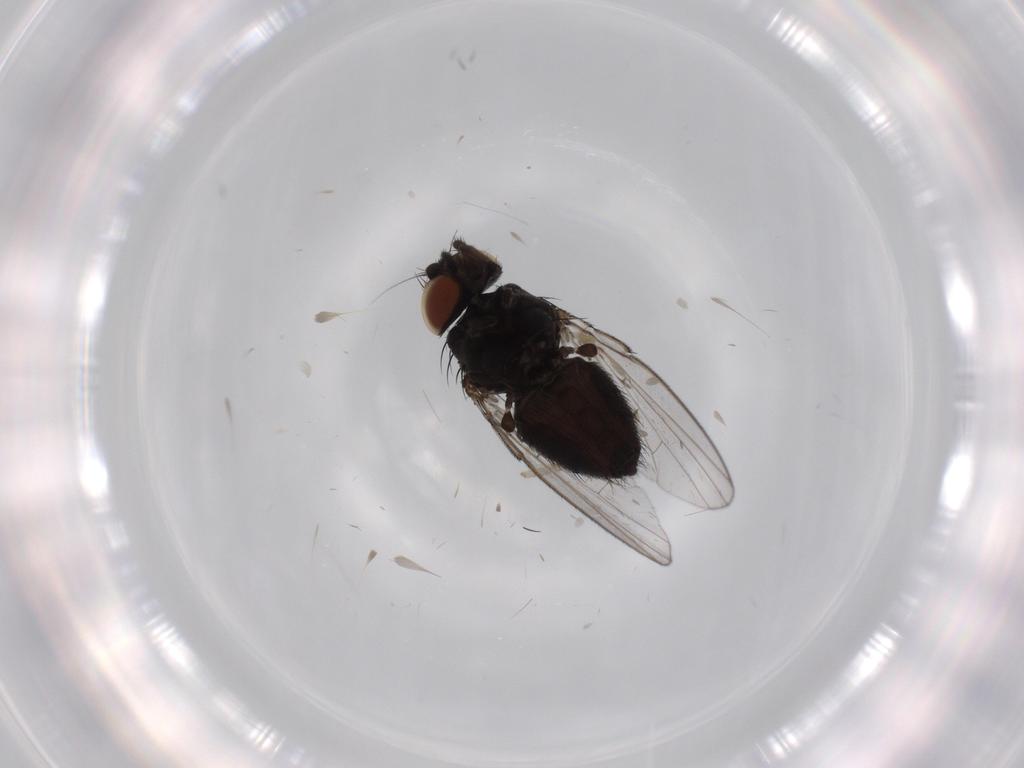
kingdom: Animalia
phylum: Arthropoda
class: Insecta
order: Diptera
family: Milichiidae
